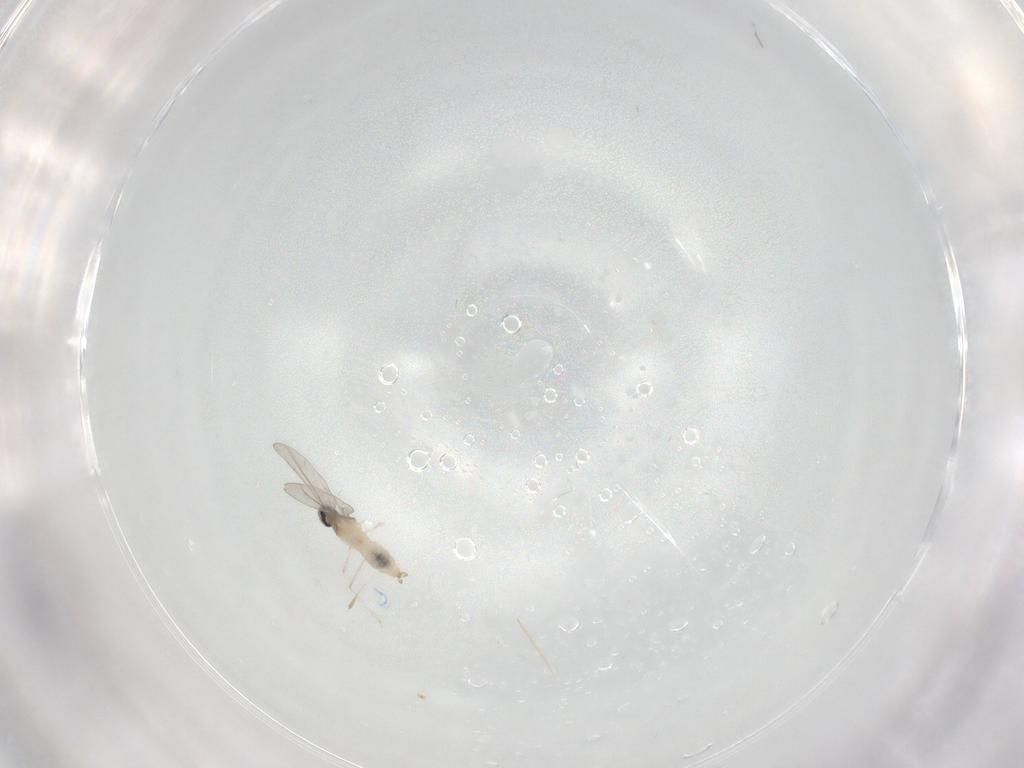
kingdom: Animalia
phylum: Arthropoda
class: Insecta
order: Diptera
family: Cecidomyiidae
